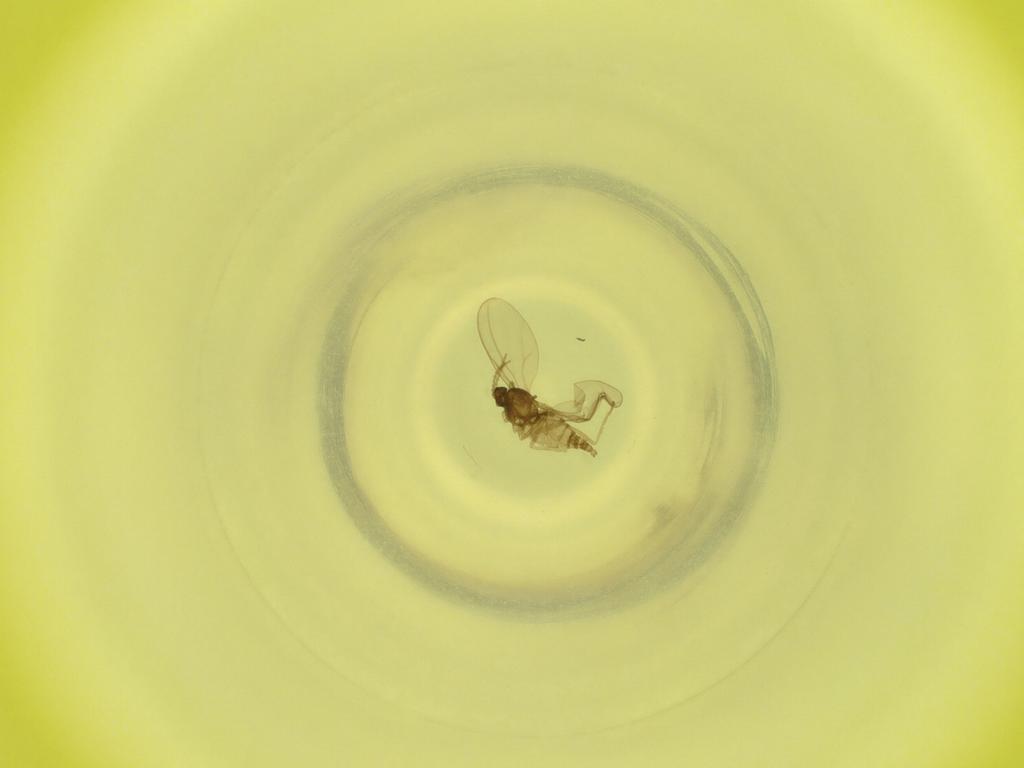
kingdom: Animalia
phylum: Arthropoda
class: Insecta
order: Diptera
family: Cecidomyiidae
